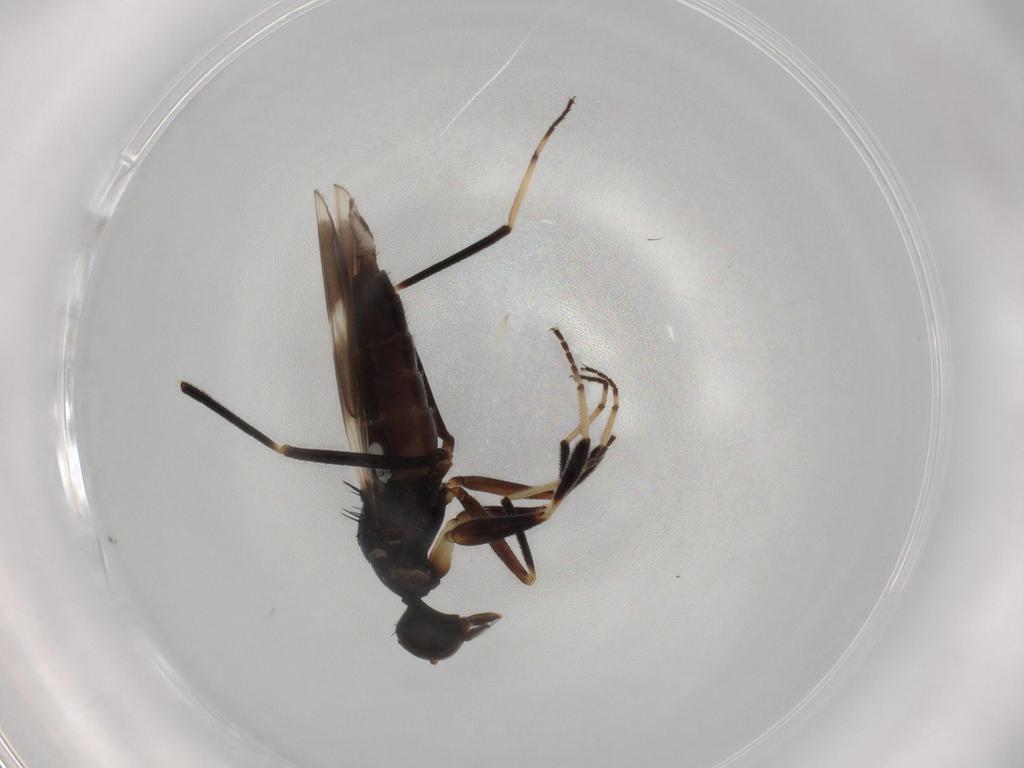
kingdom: Animalia
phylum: Arthropoda
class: Insecta
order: Diptera
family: Hybotidae
